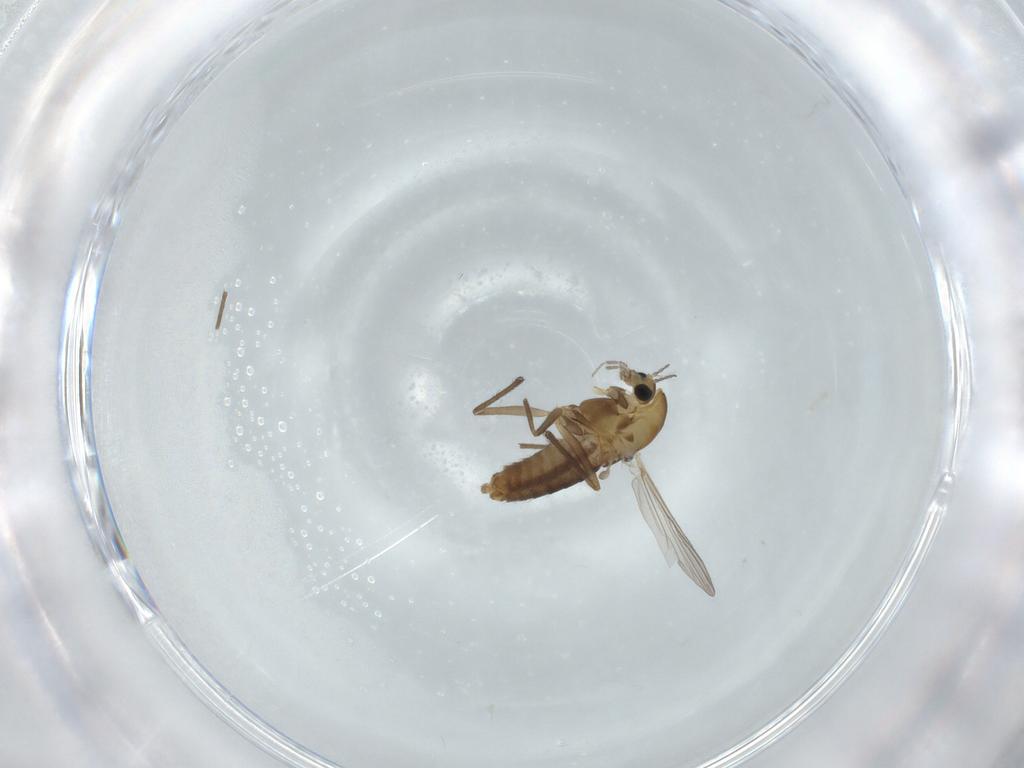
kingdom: Animalia
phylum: Arthropoda
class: Insecta
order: Diptera
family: Chironomidae
